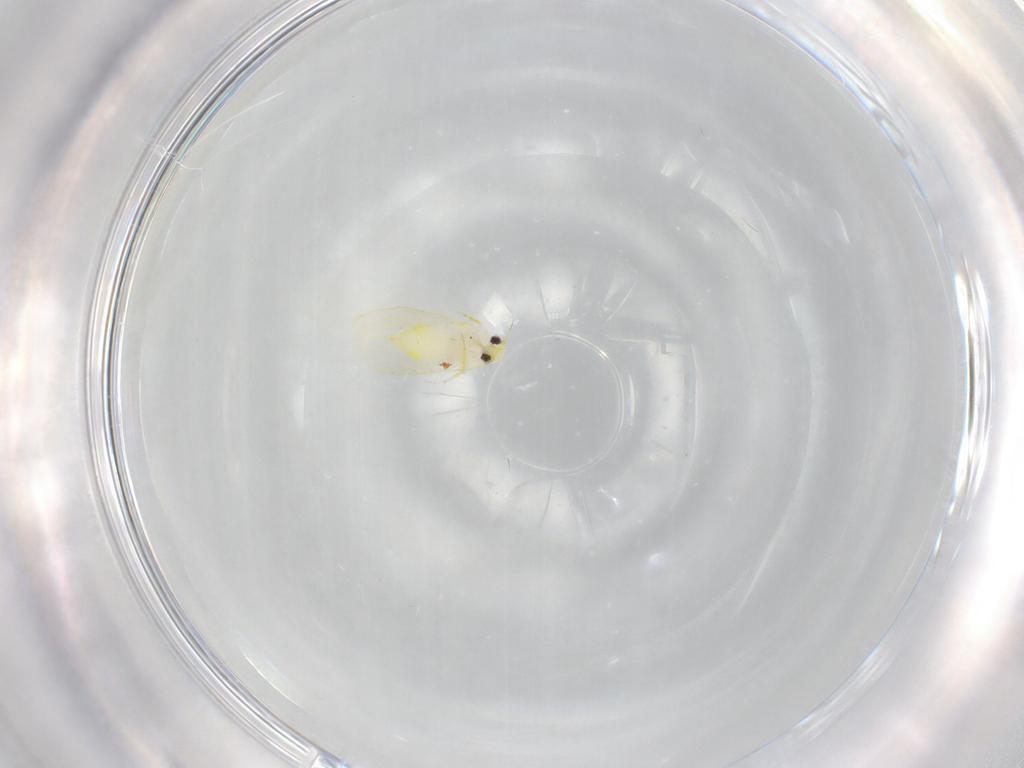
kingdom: Animalia
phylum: Arthropoda
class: Insecta
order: Hemiptera
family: Aleyrodidae
